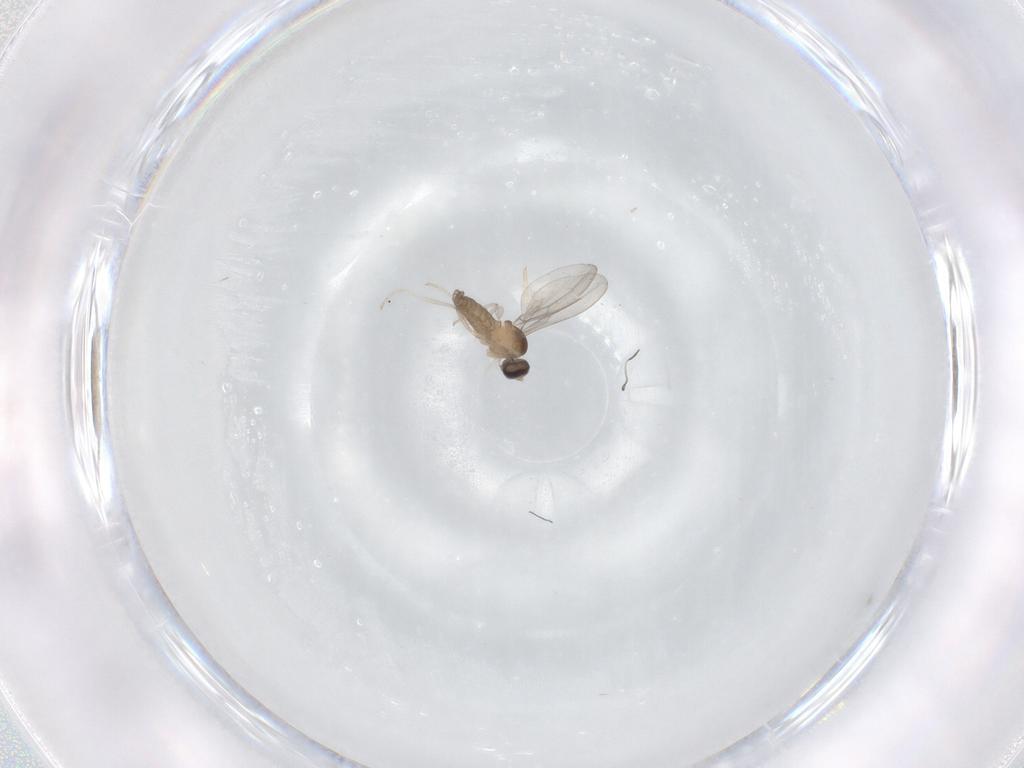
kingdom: Animalia
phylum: Arthropoda
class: Insecta
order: Diptera
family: Cecidomyiidae
